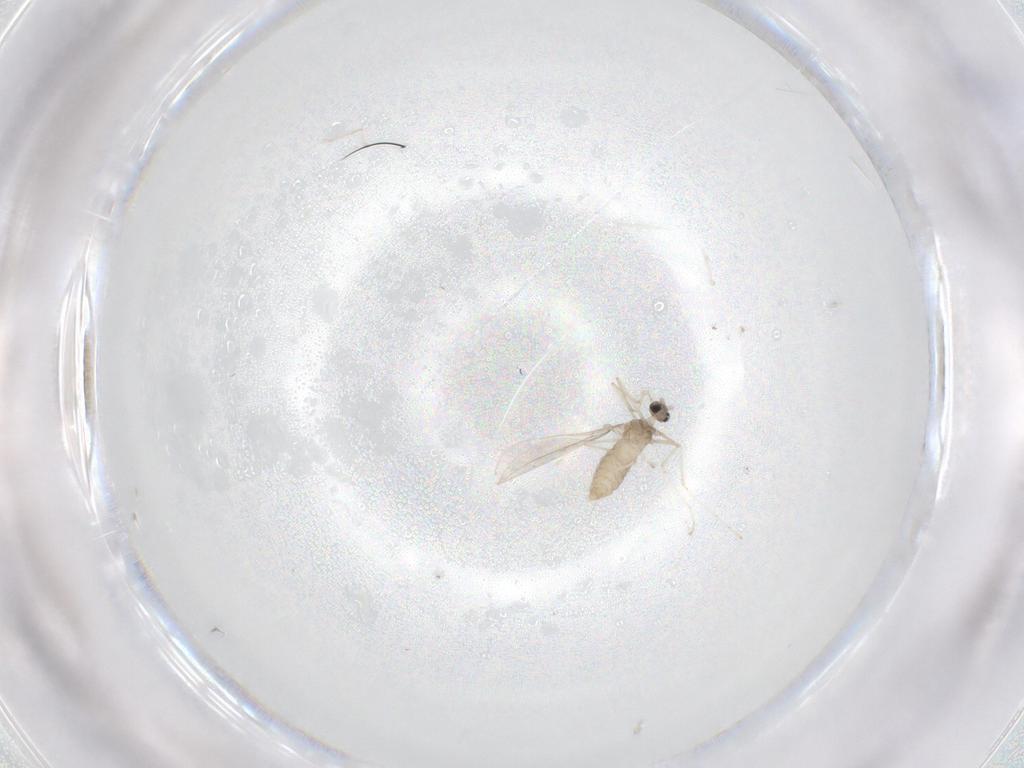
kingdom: Animalia
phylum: Arthropoda
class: Insecta
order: Diptera
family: Cecidomyiidae
